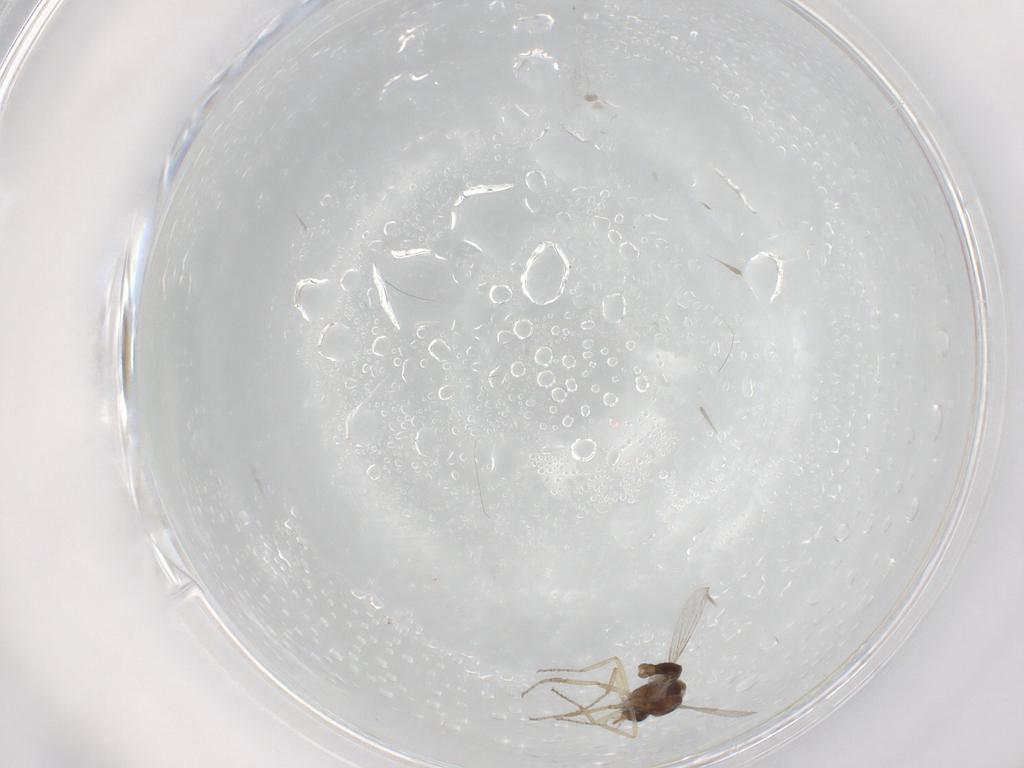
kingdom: Animalia
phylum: Arthropoda
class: Insecta
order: Diptera
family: Ceratopogonidae
